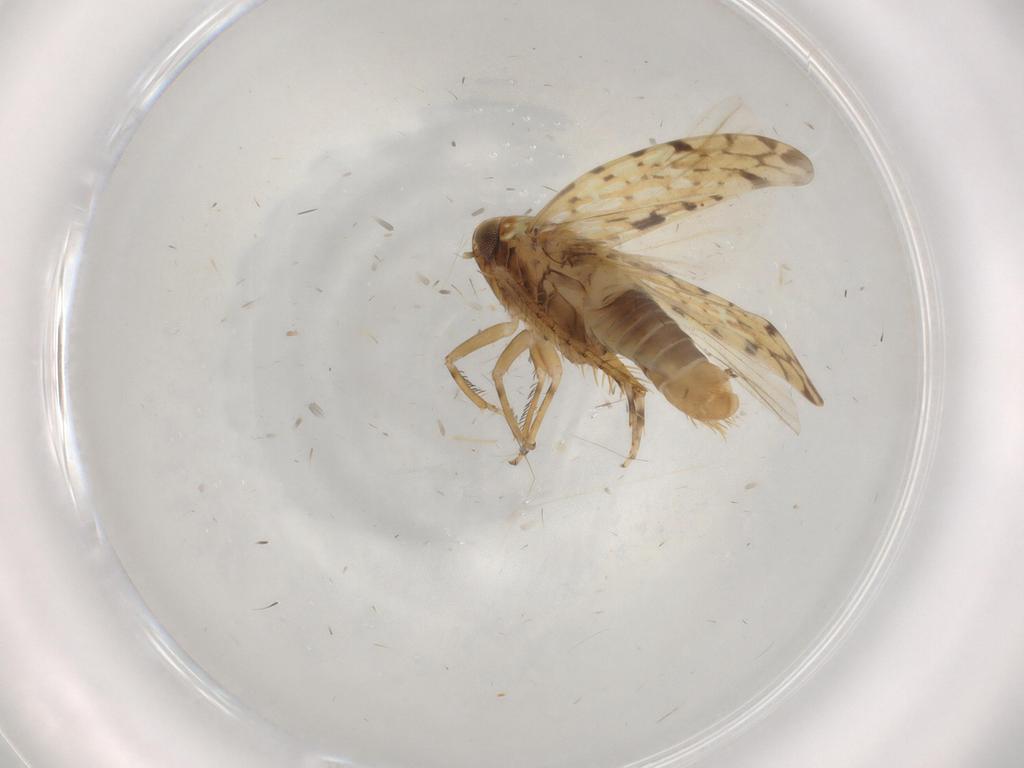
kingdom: Animalia
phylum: Arthropoda
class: Insecta
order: Hemiptera
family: Cicadellidae
